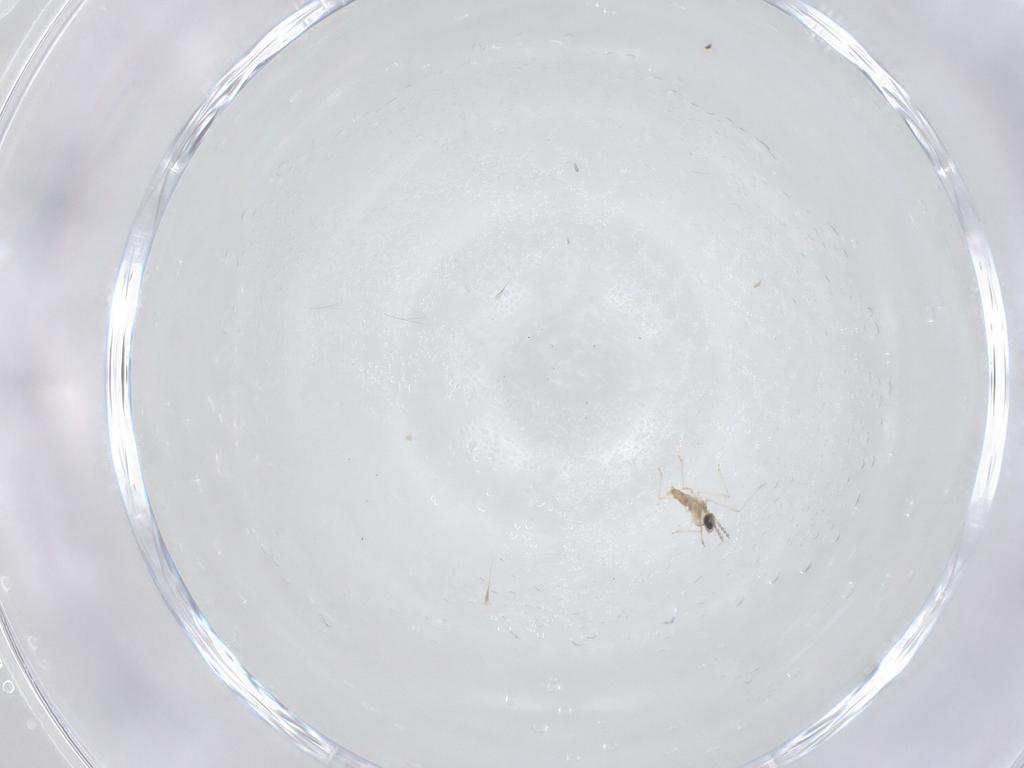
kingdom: Animalia
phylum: Arthropoda
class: Insecta
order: Diptera
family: Cecidomyiidae
